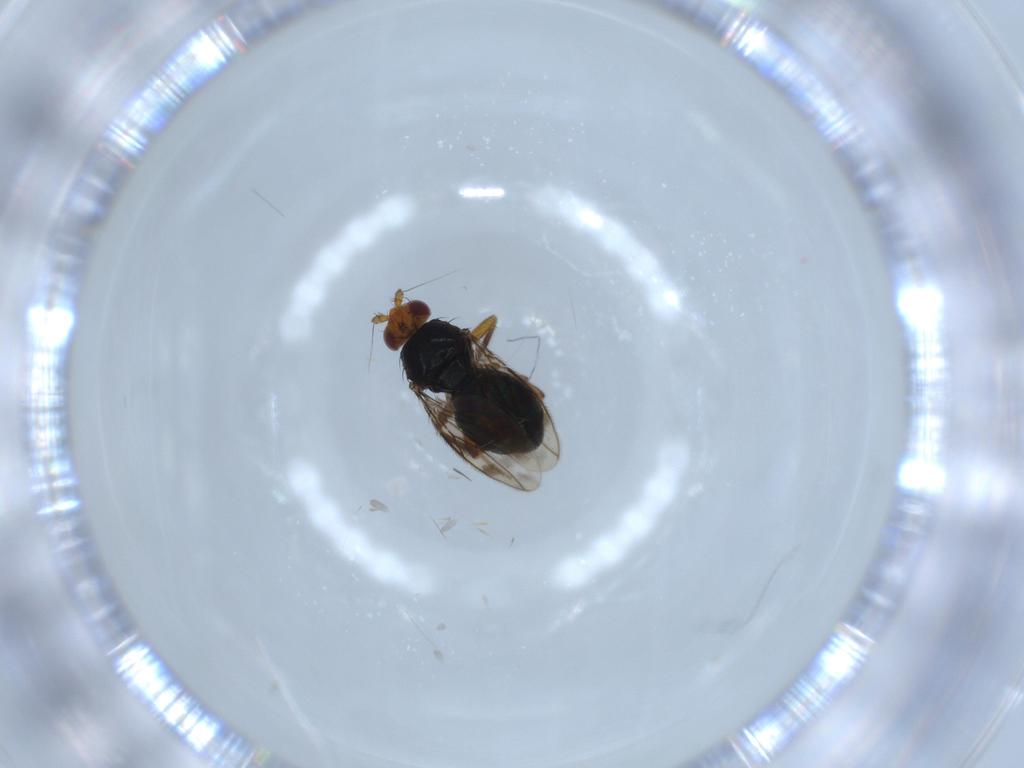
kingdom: Animalia
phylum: Arthropoda
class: Insecta
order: Diptera
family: Sphaeroceridae
